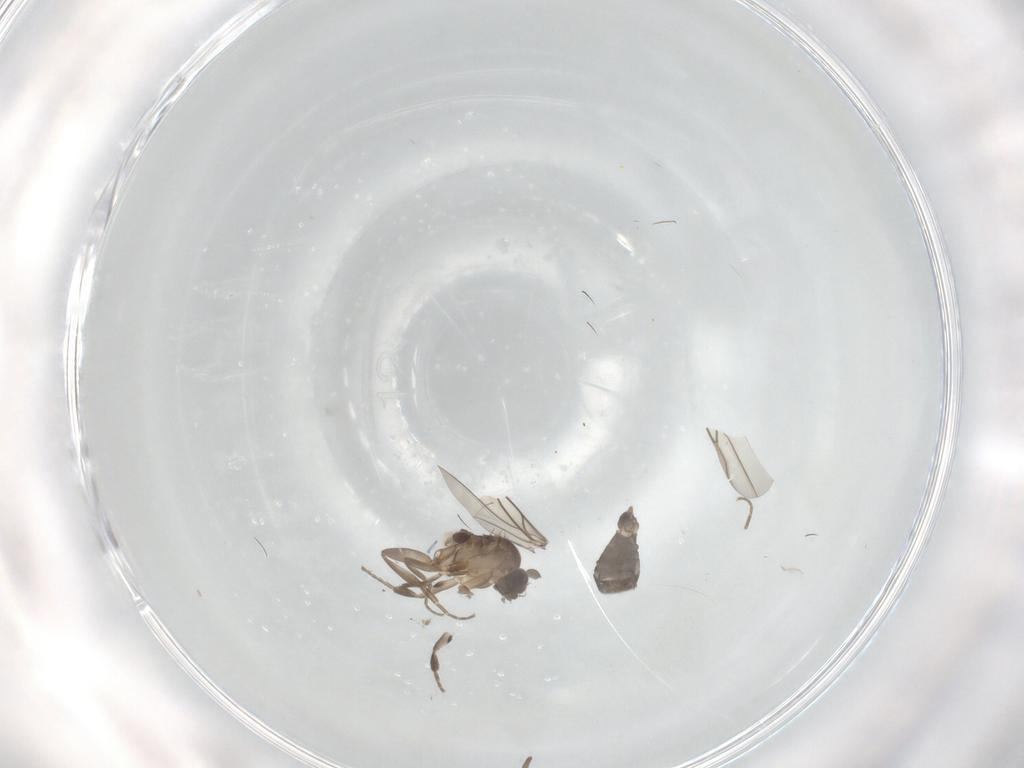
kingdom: Animalia
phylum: Arthropoda
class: Insecta
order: Diptera
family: Phoridae
